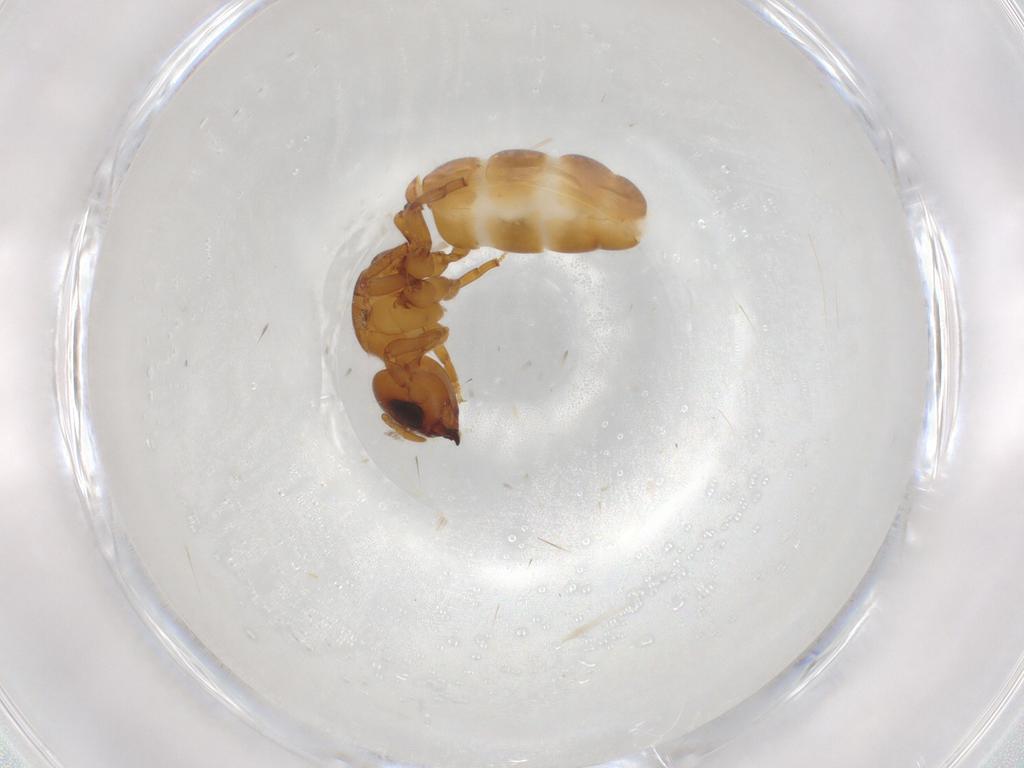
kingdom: Animalia
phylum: Arthropoda
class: Insecta
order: Hymenoptera
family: Formicidae
